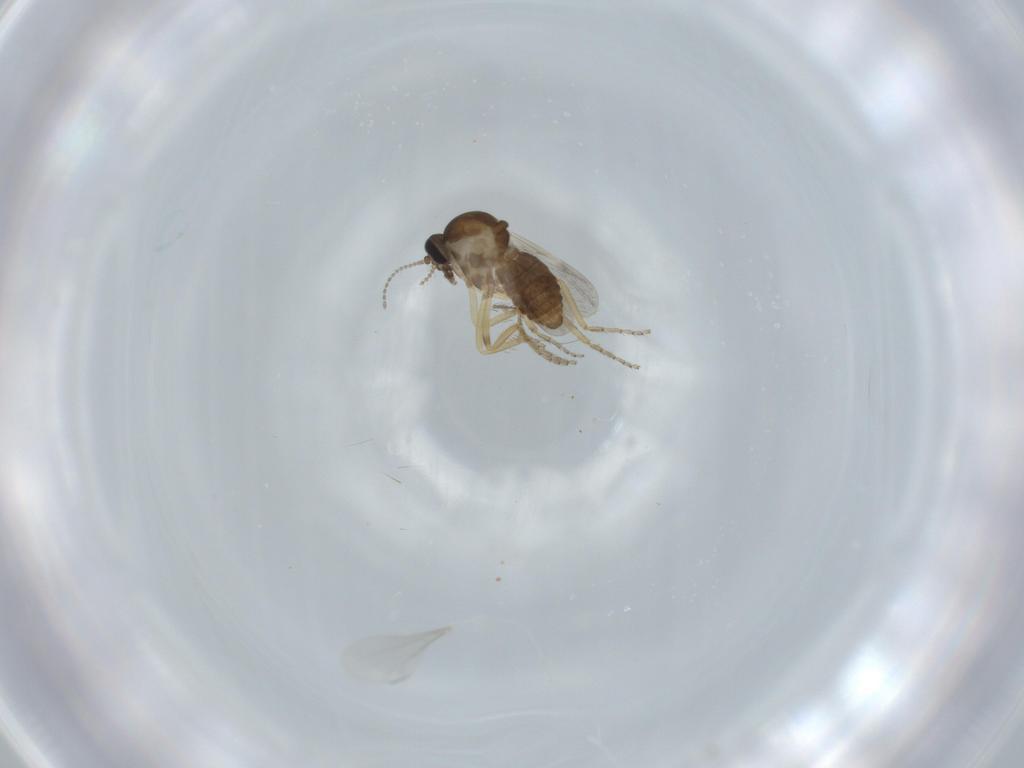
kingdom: Animalia
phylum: Arthropoda
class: Insecta
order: Diptera
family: Ceratopogonidae
